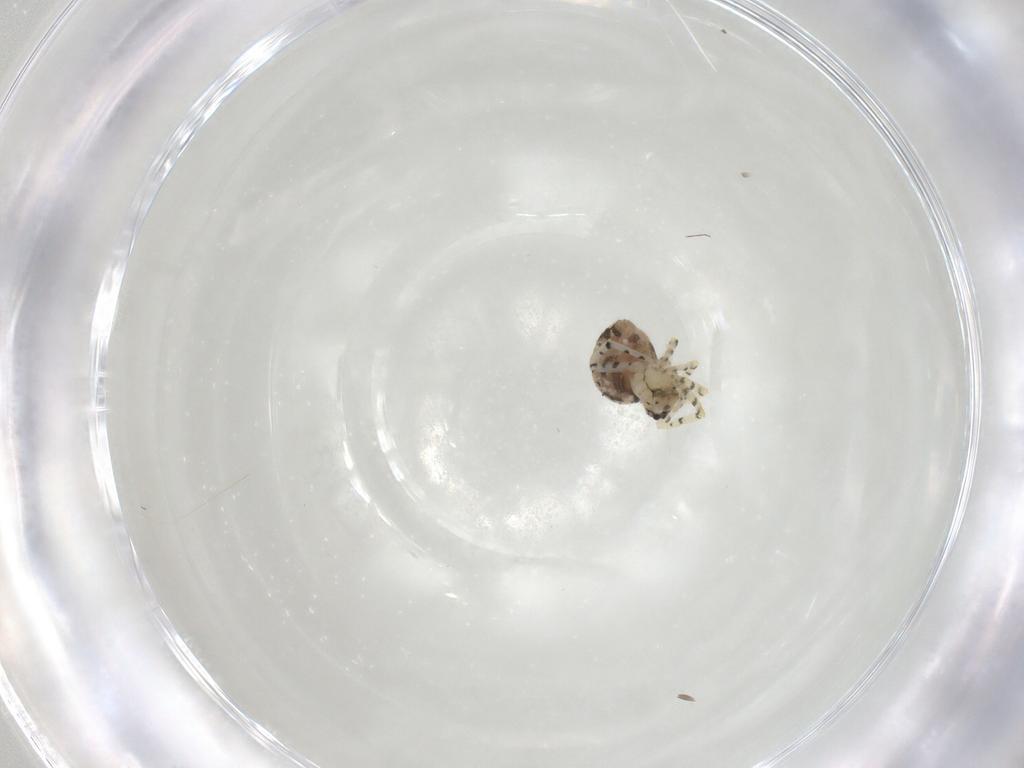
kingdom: Animalia
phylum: Arthropoda
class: Arachnida
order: Araneae
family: Theridiidae
